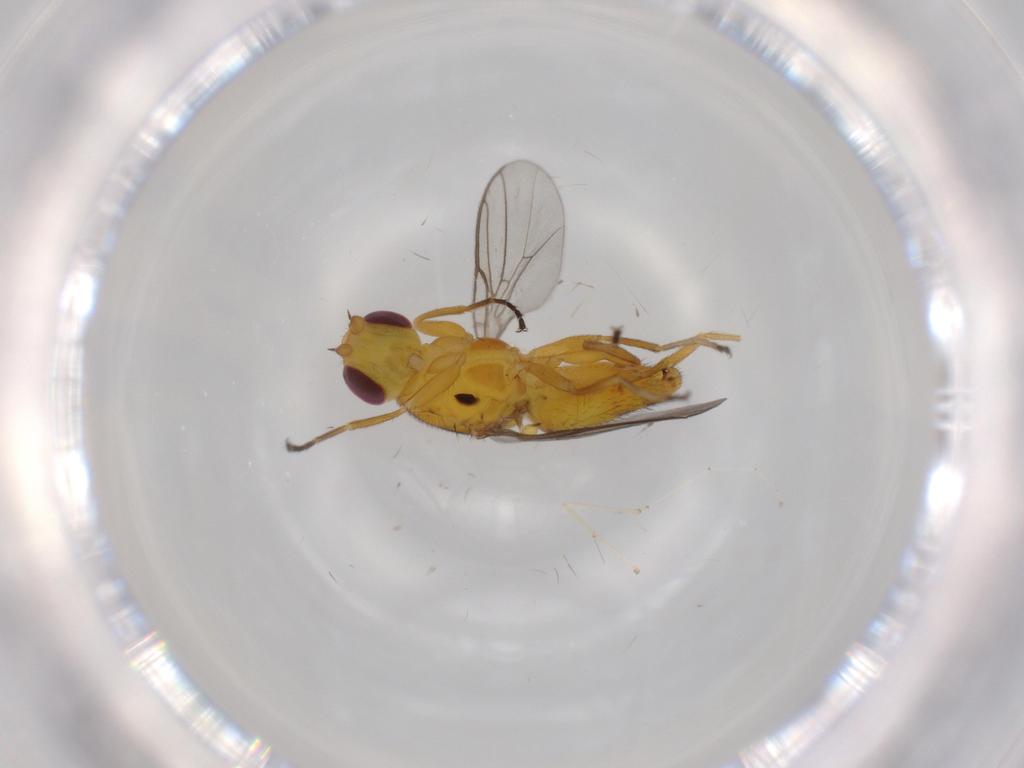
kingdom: Animalia
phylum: Arthropoda
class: Insecta
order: Diptera
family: Chloropidae
